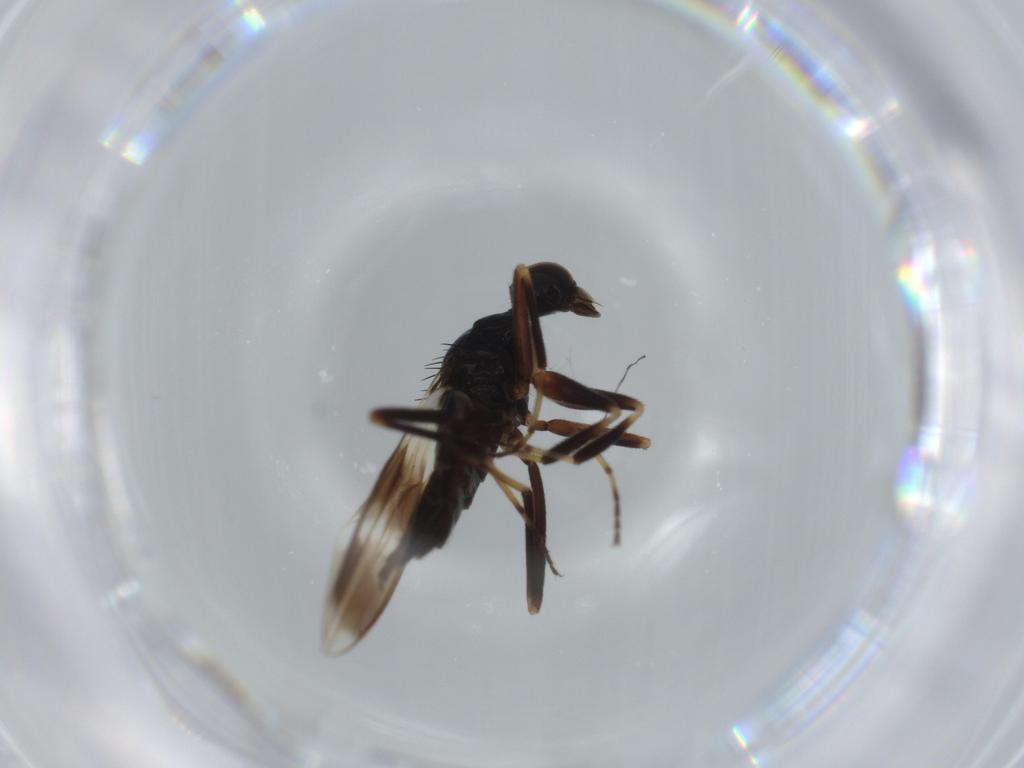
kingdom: Animalia
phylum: Arthropoda
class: Insecta
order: Diptera
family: Hybotidae
